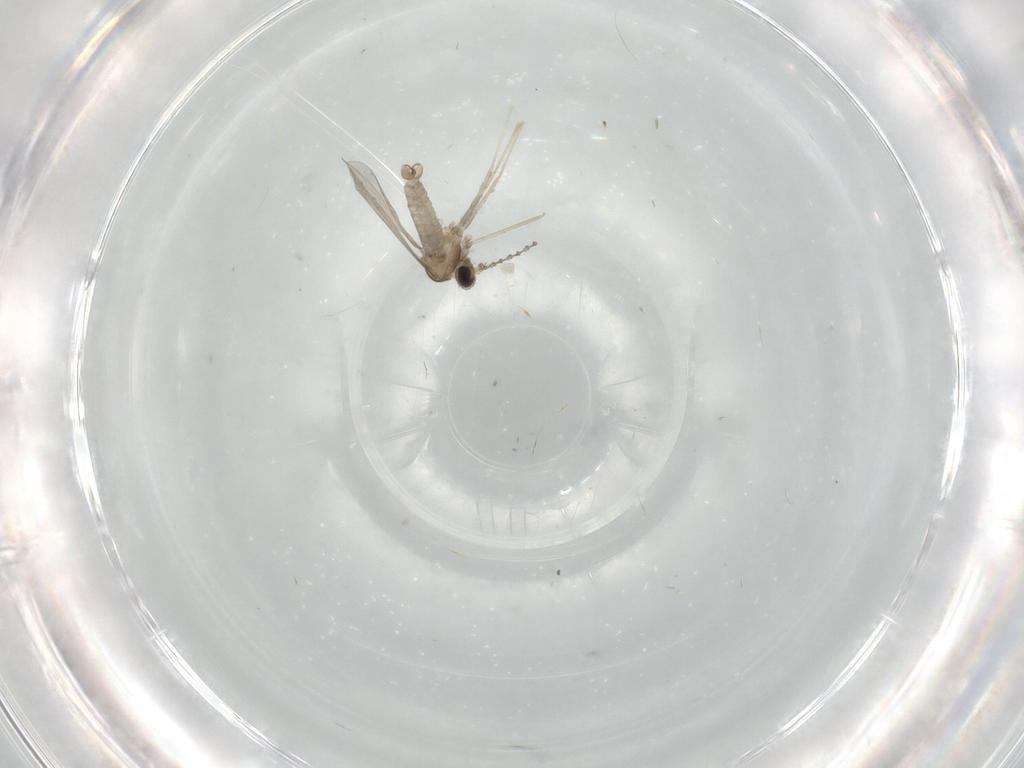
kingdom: Animalia
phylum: Arthropoda
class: Insecta
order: Diptera
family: Cecidomyiidae
